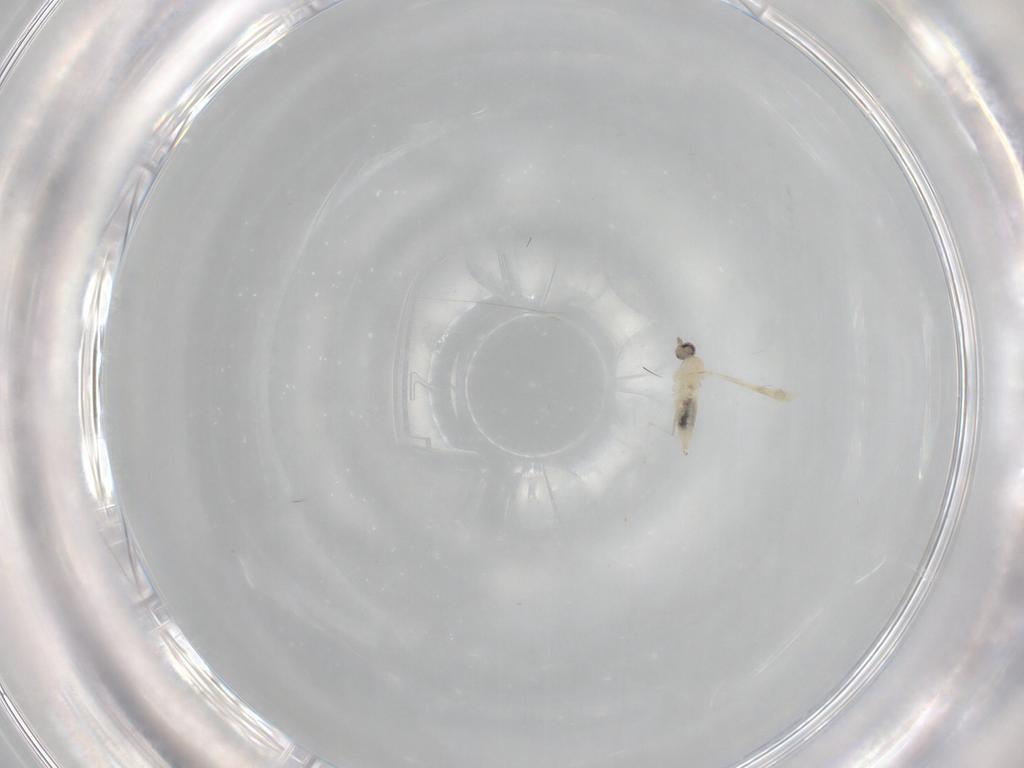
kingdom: Animalia
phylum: Arthropoda
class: Insecta
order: Diptera
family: Cecidomyiidae
